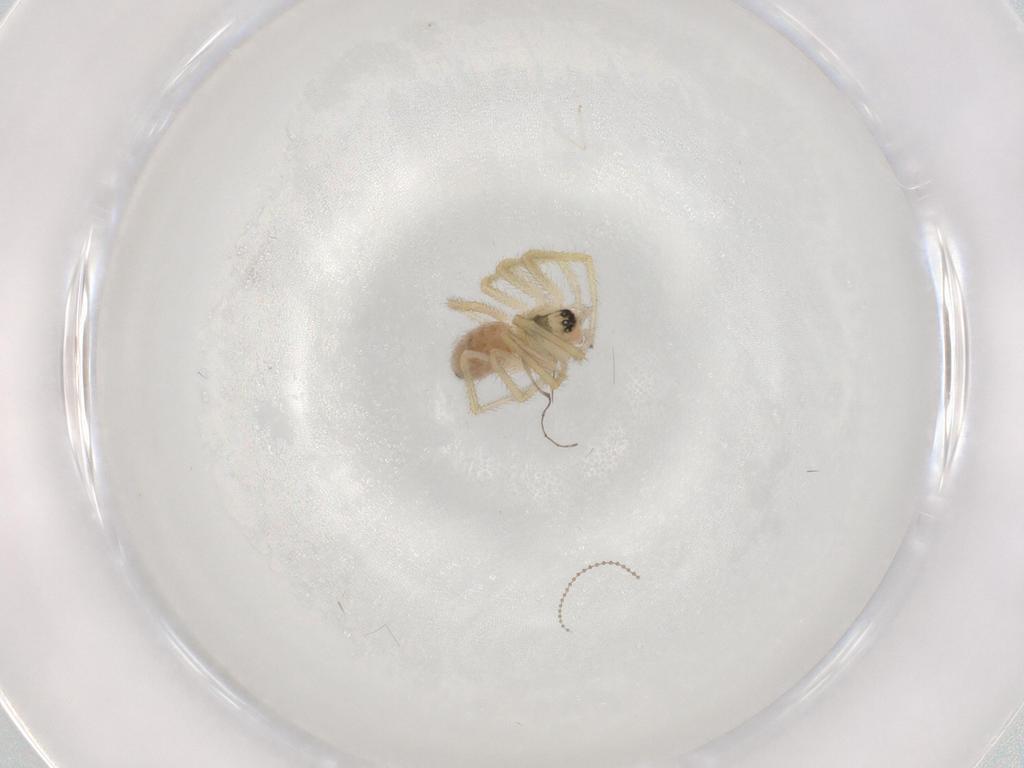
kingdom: Animalia
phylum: Arthropoda
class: Arachnida
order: Araneae
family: Linyphiidae
